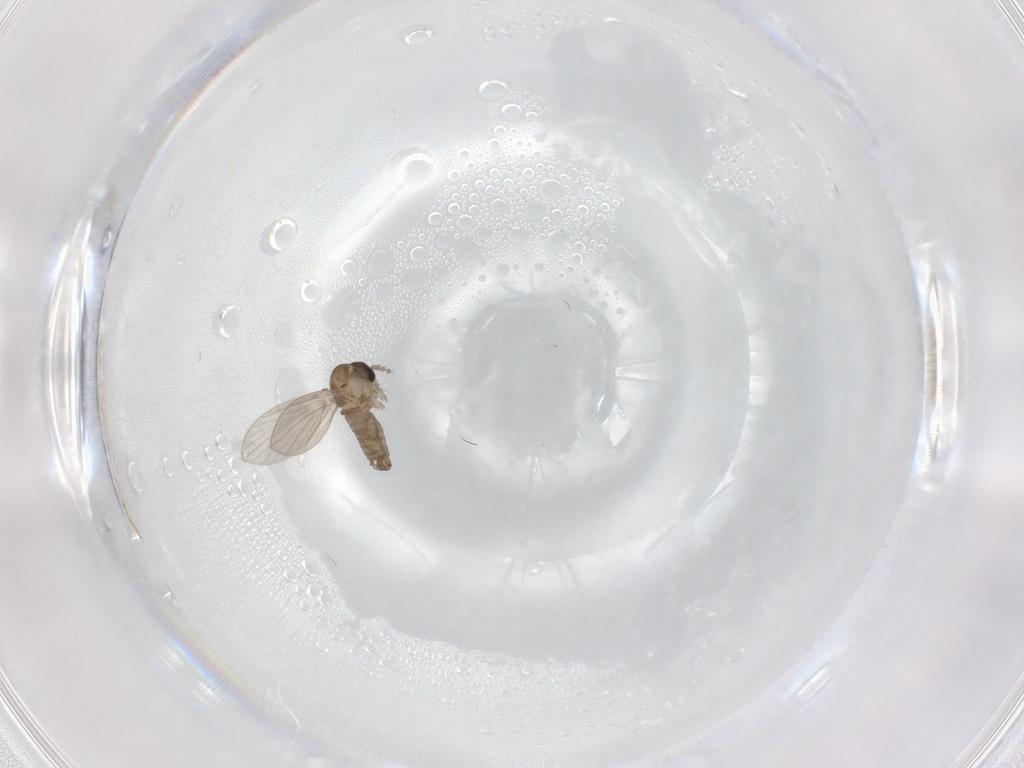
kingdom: Animalia
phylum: Arthropoda
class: Insecta
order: Diptera
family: Psychodidae
